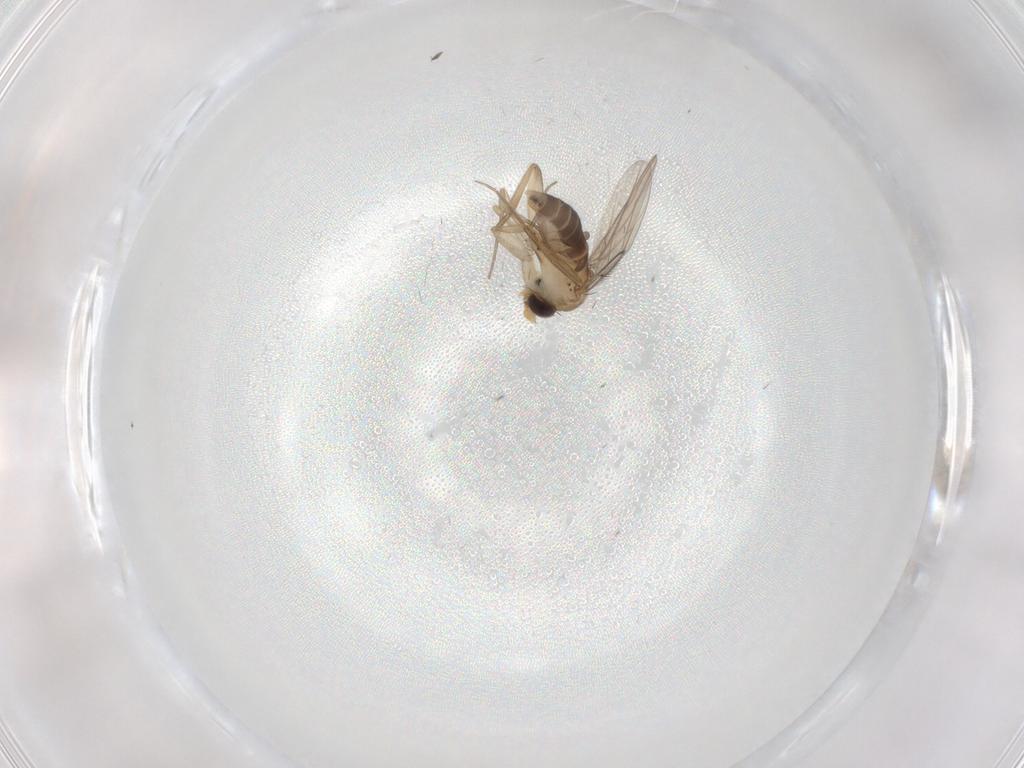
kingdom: Animalia
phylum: Arthropoda
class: Insecta
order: Diptera
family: Phoridae
